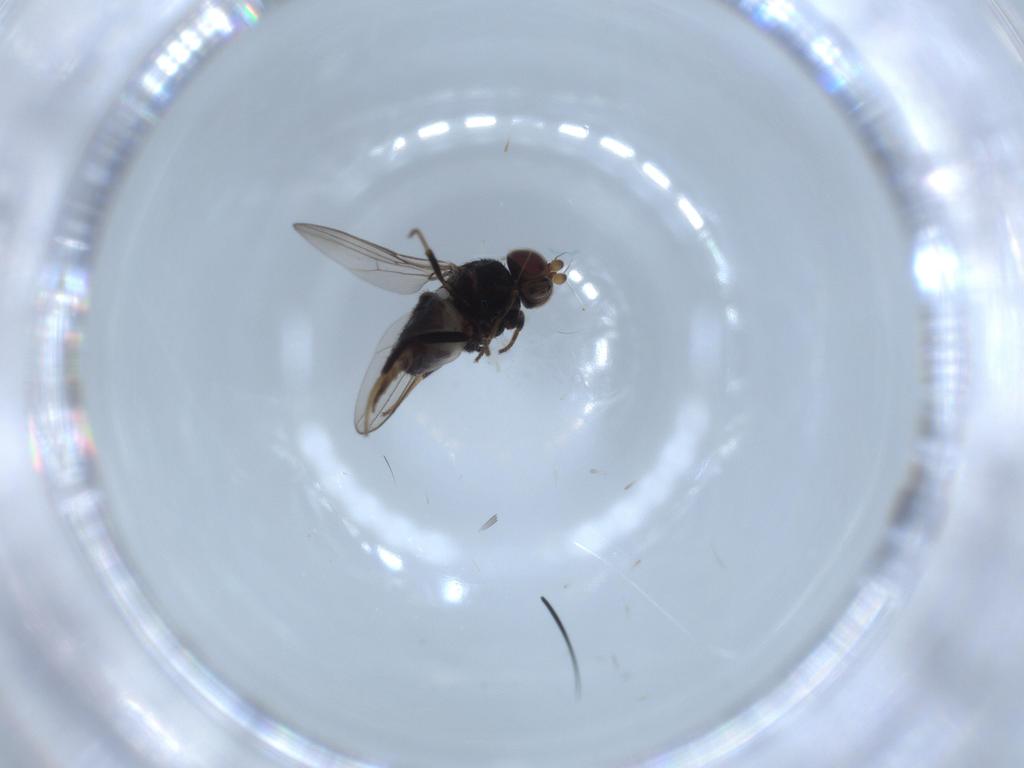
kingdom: Animalia
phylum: Arthropoda
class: Insecta
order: Diptera
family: Sciaridae
